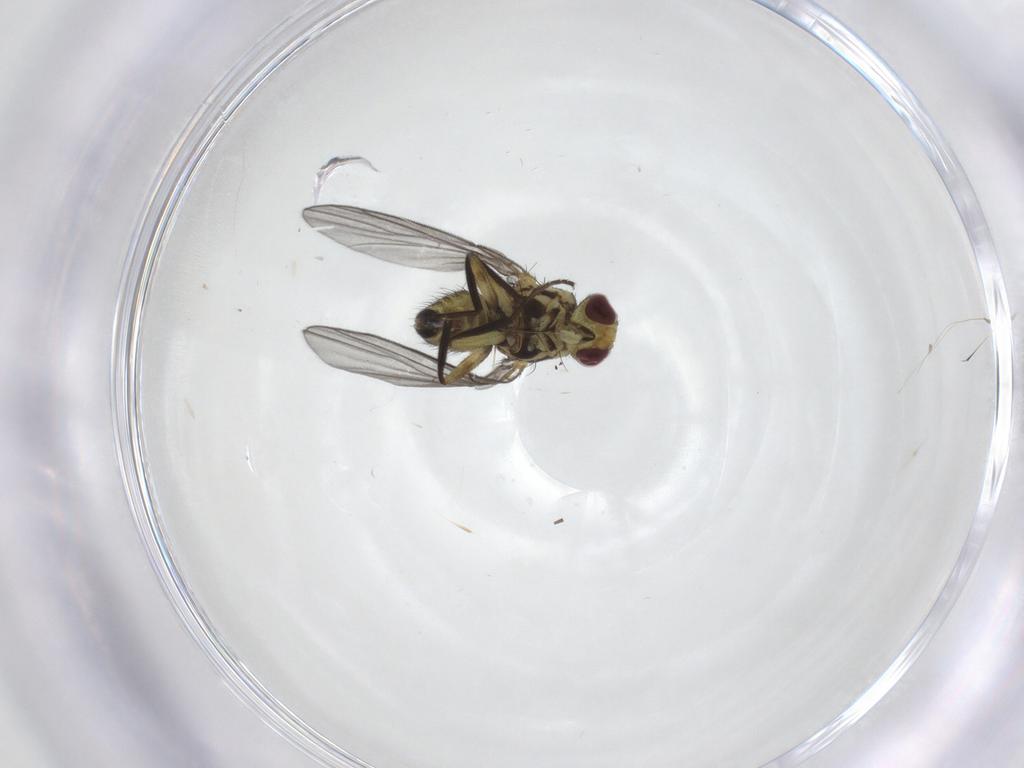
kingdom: Animalia
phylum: Arthropoda
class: Insecta
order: Diptera
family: Agromyzidae
